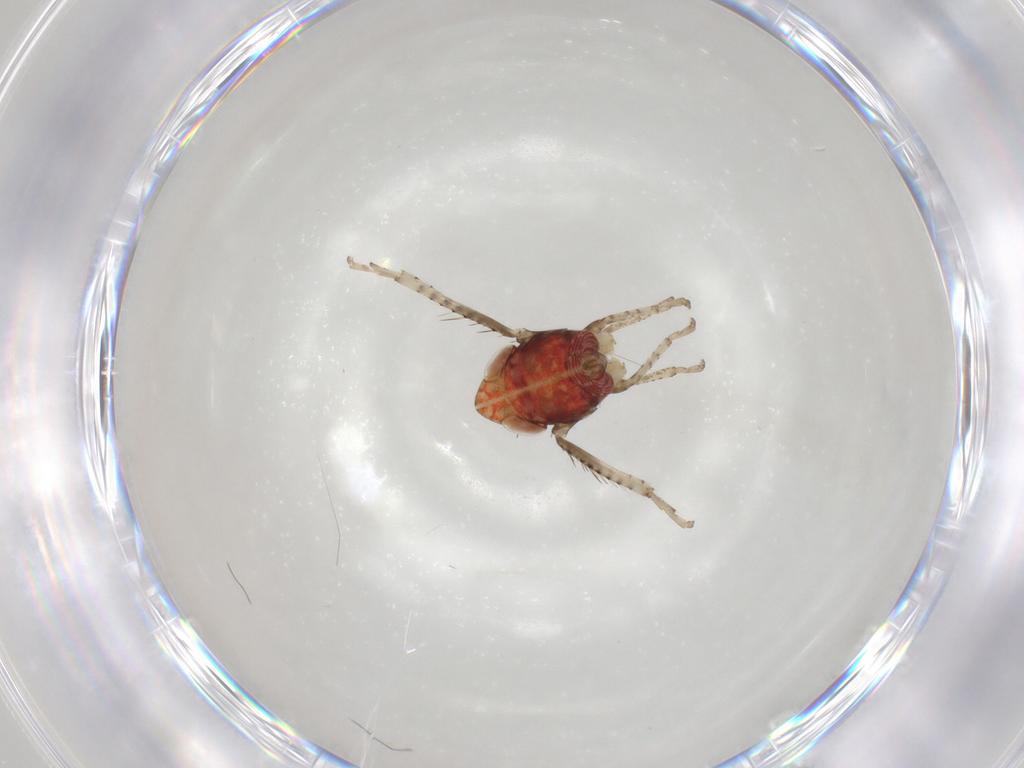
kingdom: Animalia
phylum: Arthropoda
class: Insecta
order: Hemiptera
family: Cicadellidae
